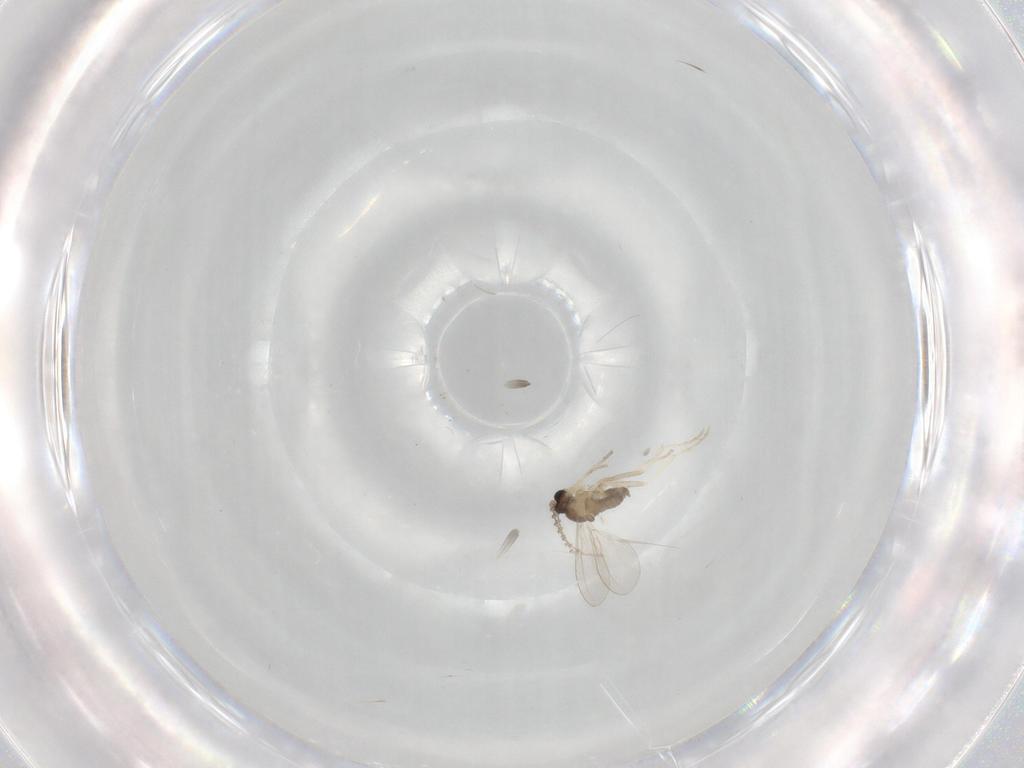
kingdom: Animalia
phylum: Arthropoda
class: Insecta
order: Diptera
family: Cecidomyiidae
